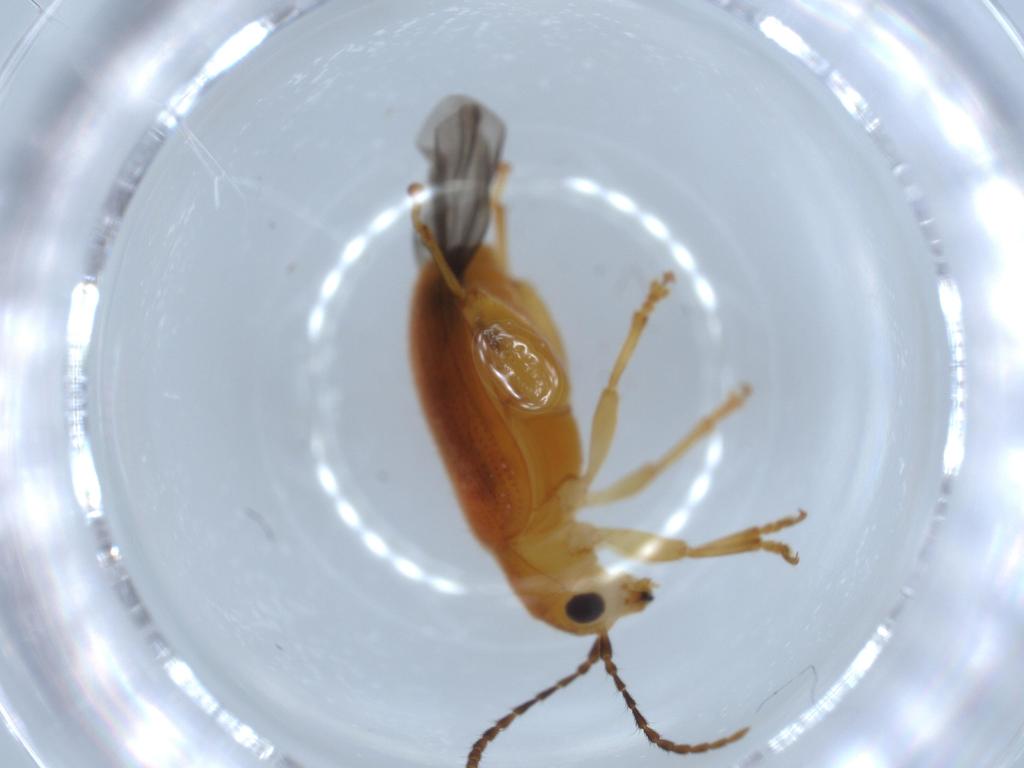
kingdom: Animalia
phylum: Arthropoda
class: Insecta
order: Coleoptera
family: Chrysomelidae
